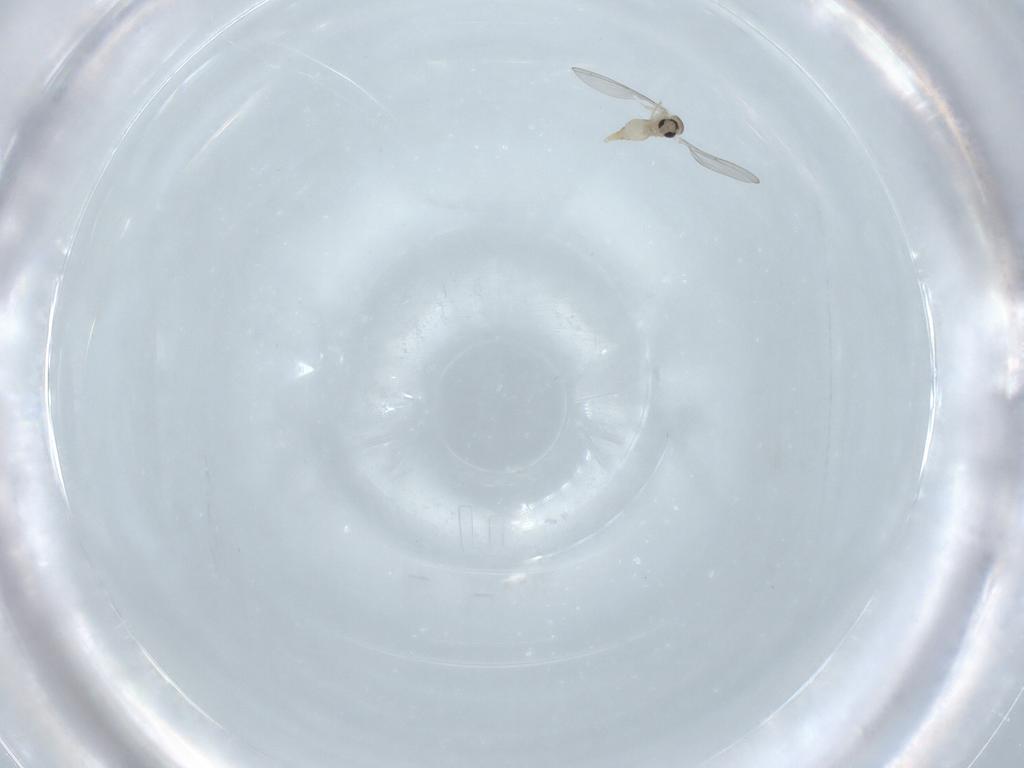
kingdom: Animalia
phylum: Arthropoda
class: Insecta
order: Diptera
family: Cecidomyiidae
